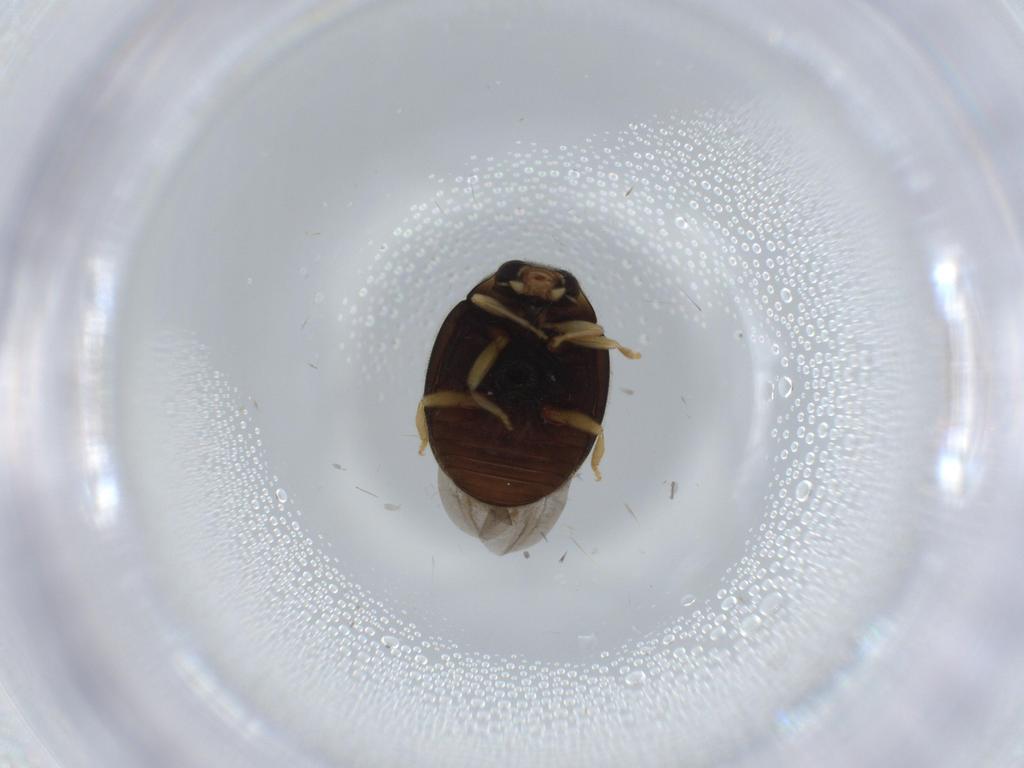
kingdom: Animalia
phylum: Arthropoda
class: Insecta
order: Coleoptera
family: Coccinellidae
